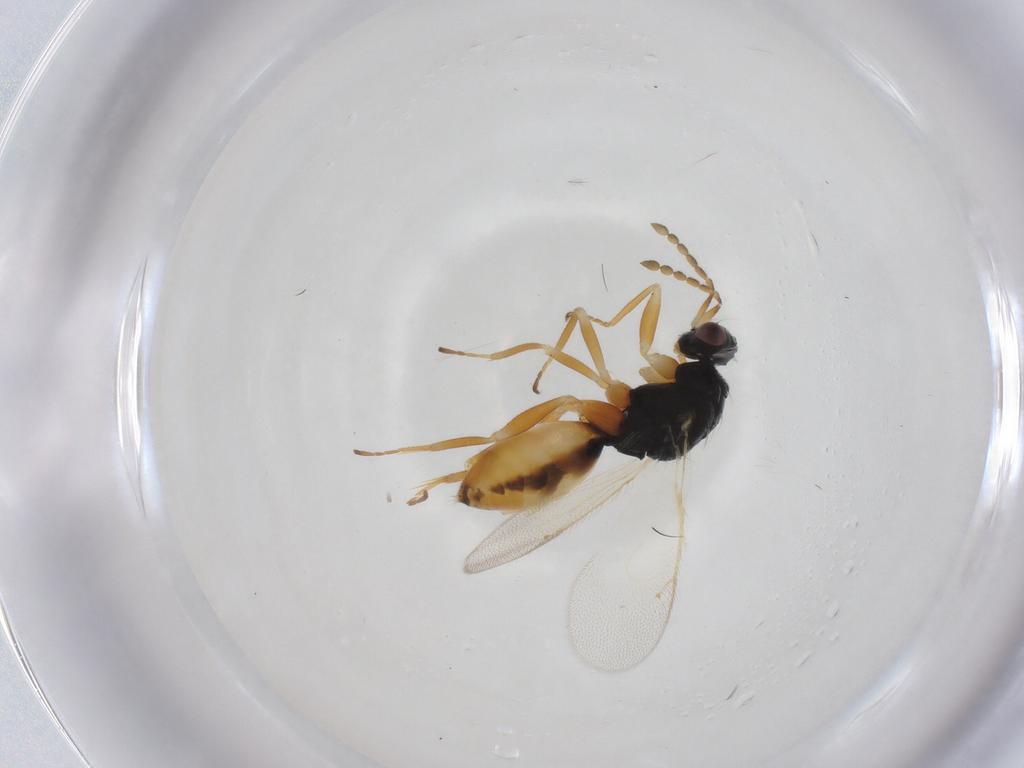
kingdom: Animalia
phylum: Arthropoda
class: Insecta
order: Hymenoptera
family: Eulophidae
